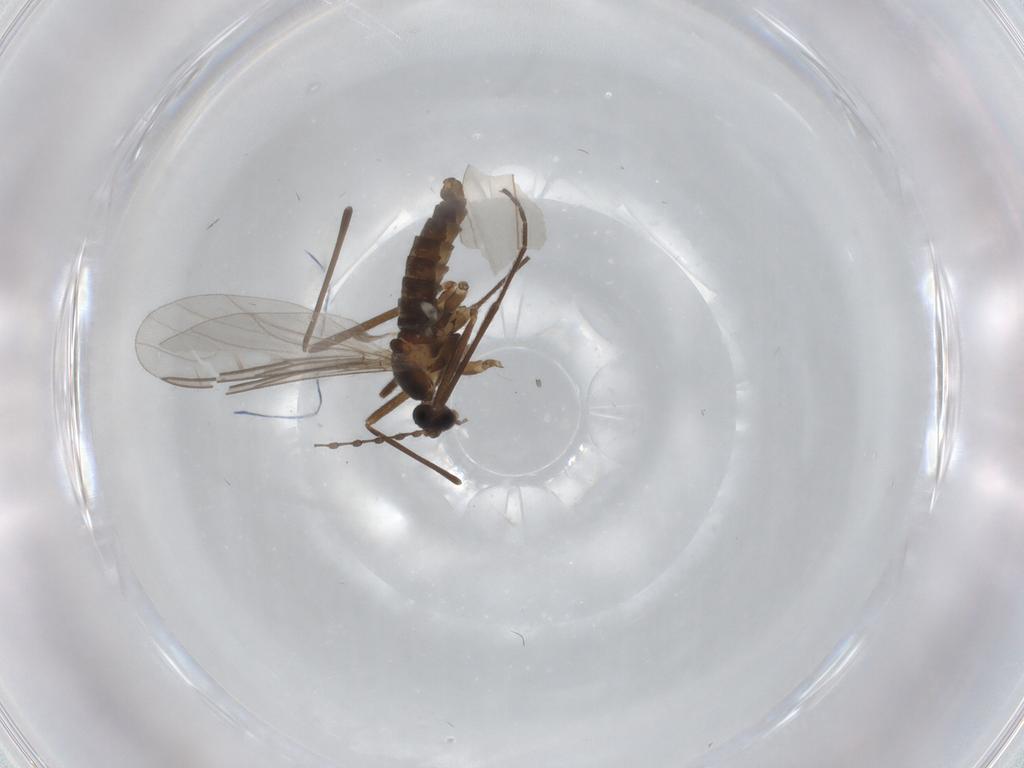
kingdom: Animalia
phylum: Arthropoda
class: Insecta
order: Diptera
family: Cecidomyiidae
